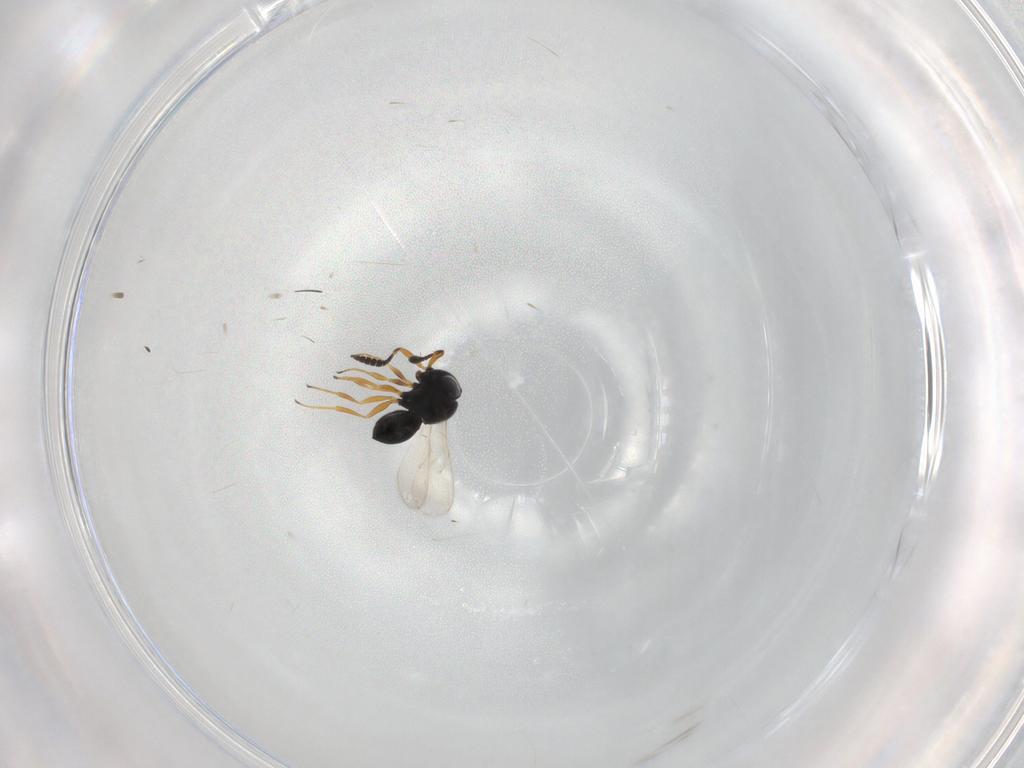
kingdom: Animalia
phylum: Arthropoda
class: Insecta
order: Hymenoptera
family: Scelionidae
